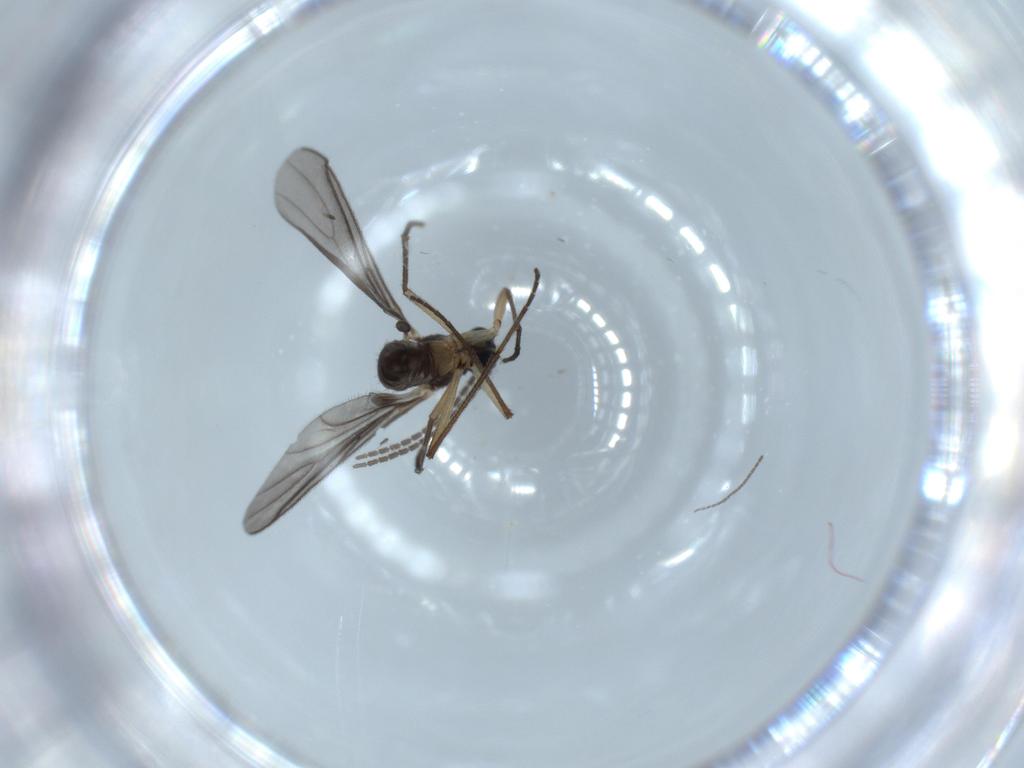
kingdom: Animalia
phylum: Arthropoda
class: Insecta
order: Diptera
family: Sciaridae
